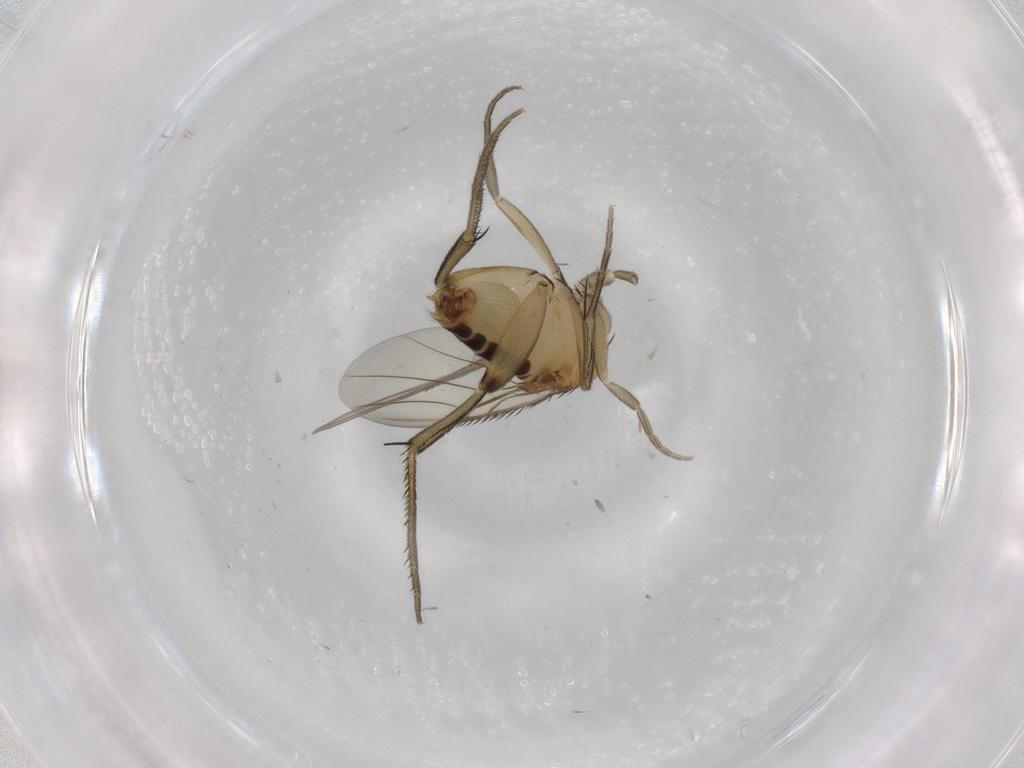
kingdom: Animalia
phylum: Arthropoda
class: Insecta
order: Diptera
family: Phoridae
